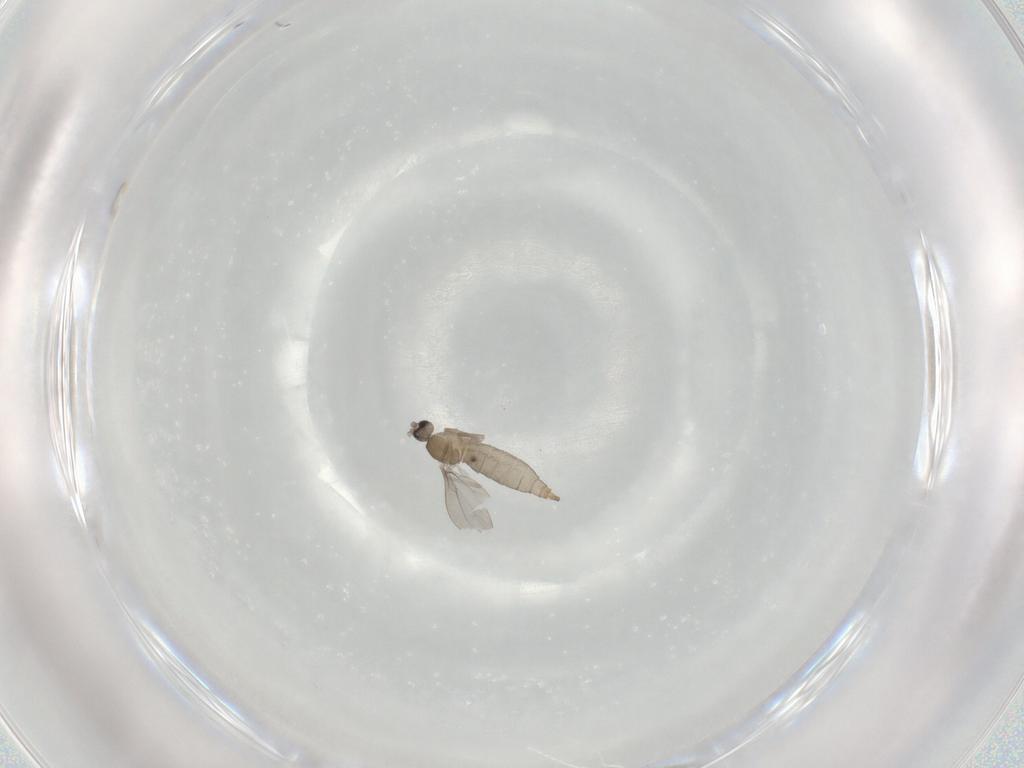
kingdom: Animalia
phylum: Arthropoda
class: Insecta
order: Diptera
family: Cecidomyiidae
